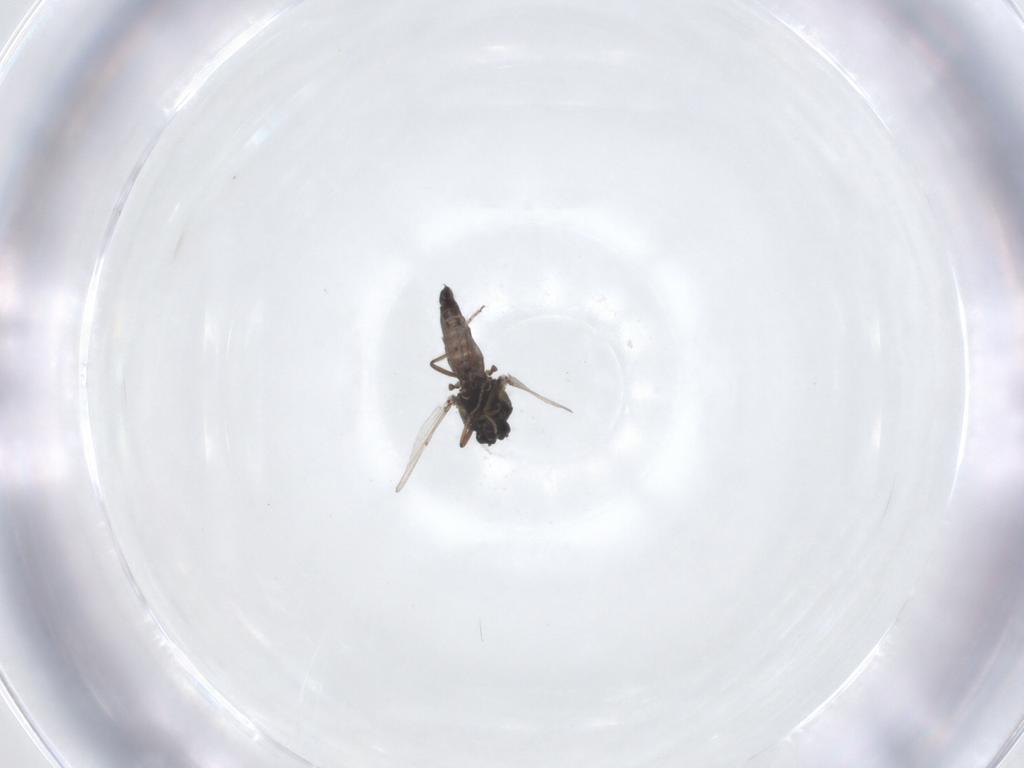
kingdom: Animalia
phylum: Arthropoda
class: Insecta
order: Diptera
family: Ceratopogonidae
